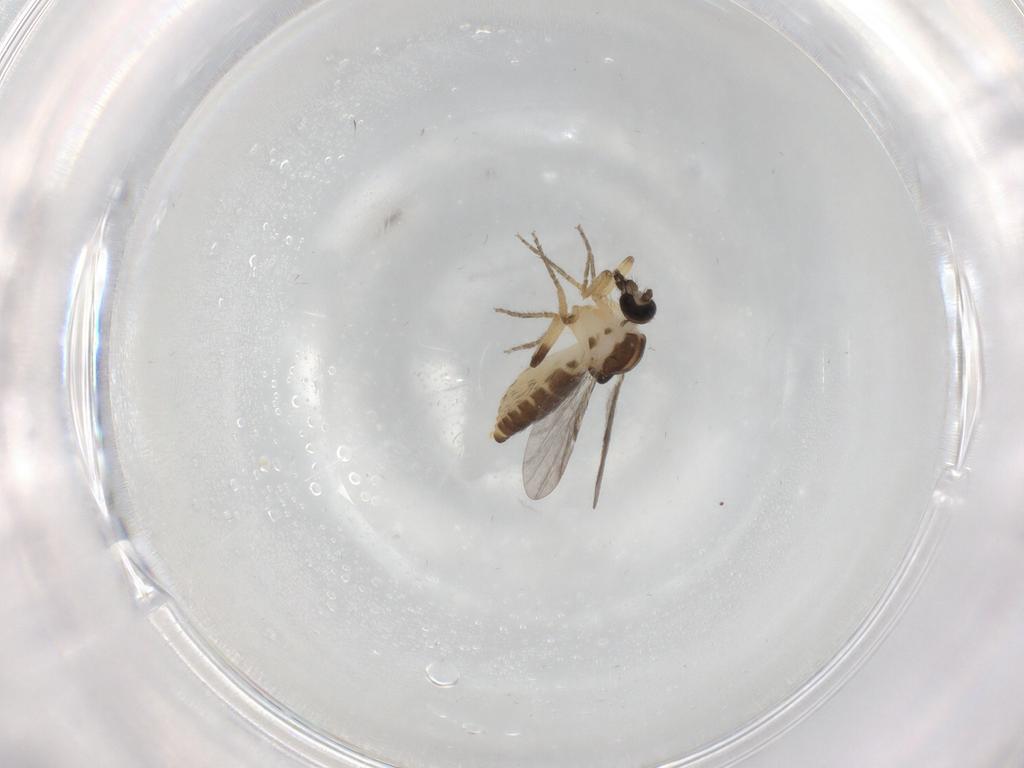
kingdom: Animalia
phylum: Arthropoda
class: Insecta
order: Diptera
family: Ceratopogonidae
